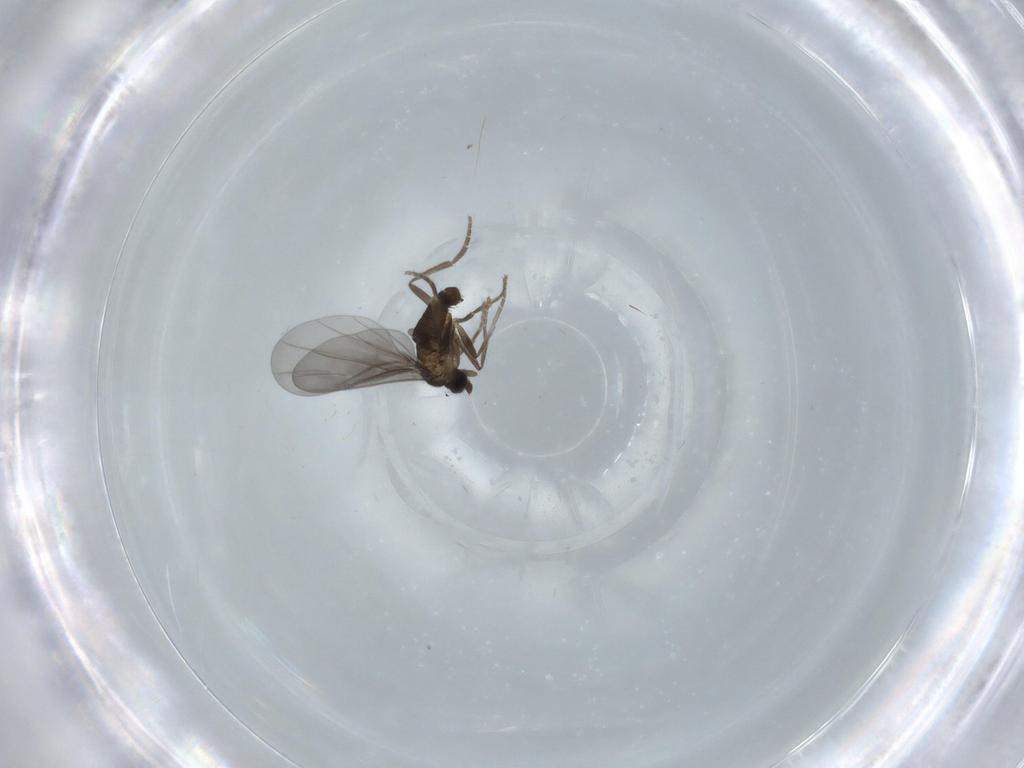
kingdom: Animalia
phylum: Arthropoda
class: Insecta
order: Diptera
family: Phoridae
